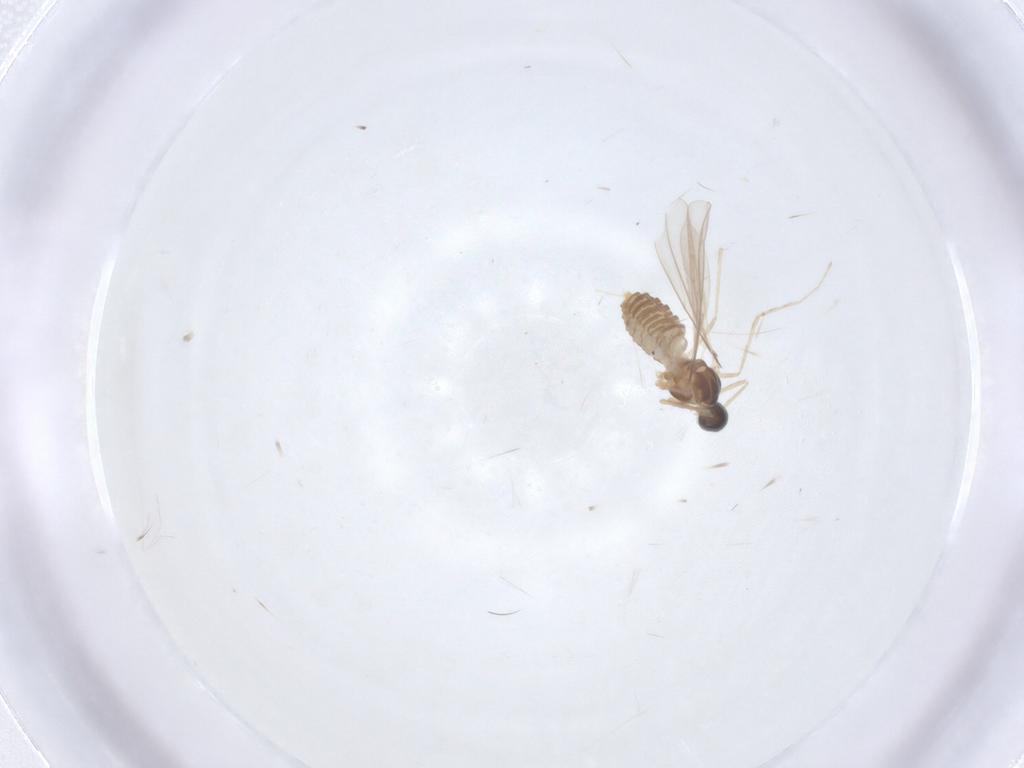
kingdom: Animalia
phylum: Arthropoda
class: Insecta
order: Diptera
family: Cecidomyiidae
